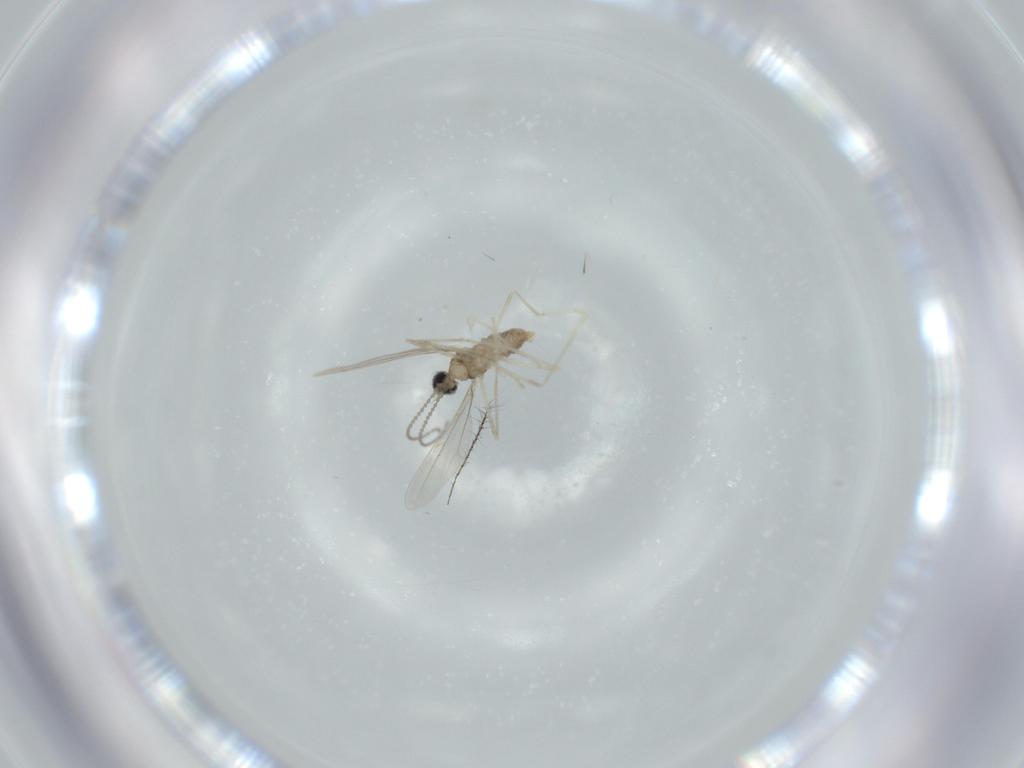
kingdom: Animalia
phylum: Arthropoda
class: Insecta
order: Diptera
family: Cecidomyiidae
